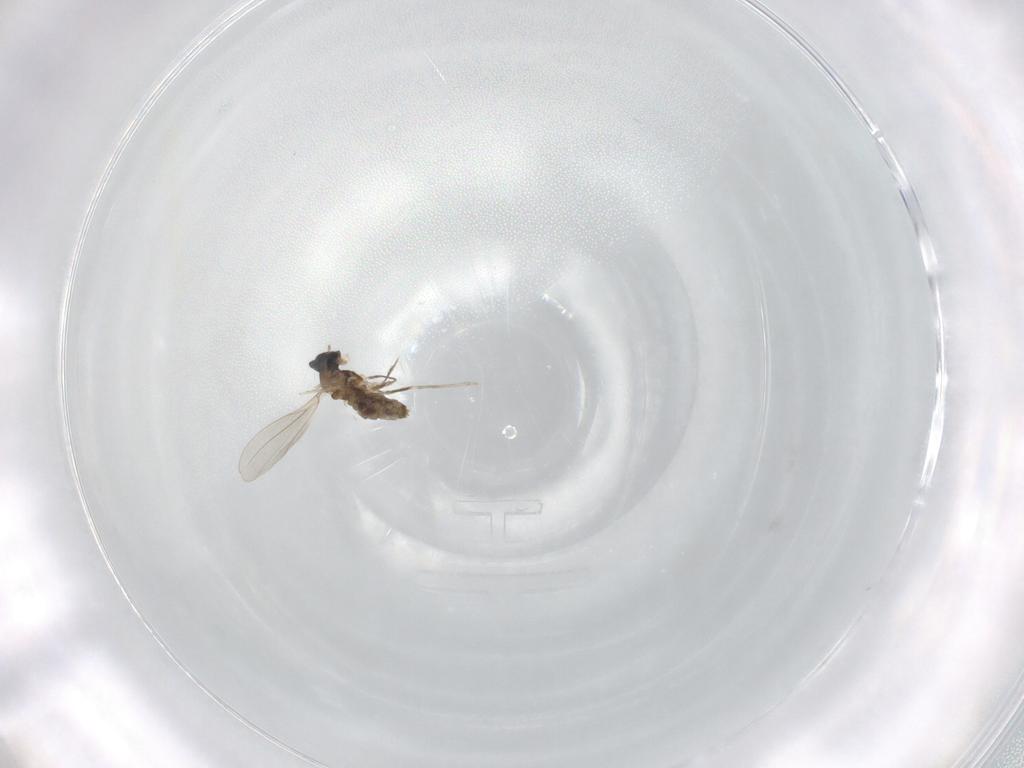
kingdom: Animalia
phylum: Arthropoda
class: Insecta
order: Diptera
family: Cecidomyiidae
